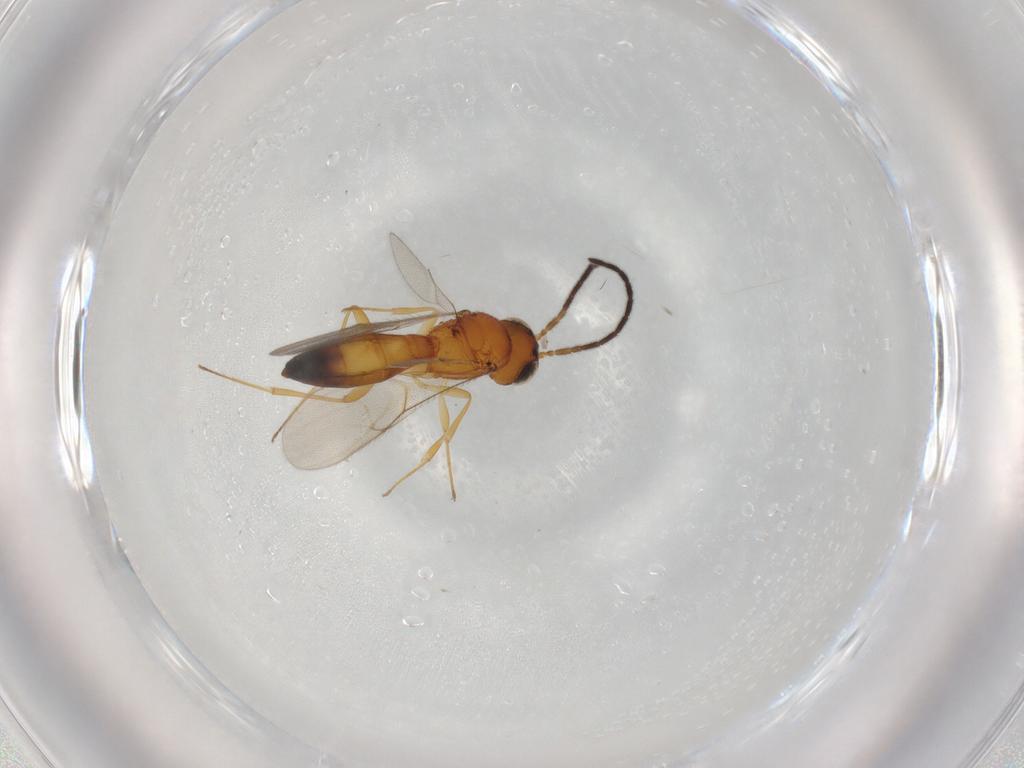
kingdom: Animalia
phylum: Arthropoda
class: Insecta
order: Hymenoptera
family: Scelionidae
